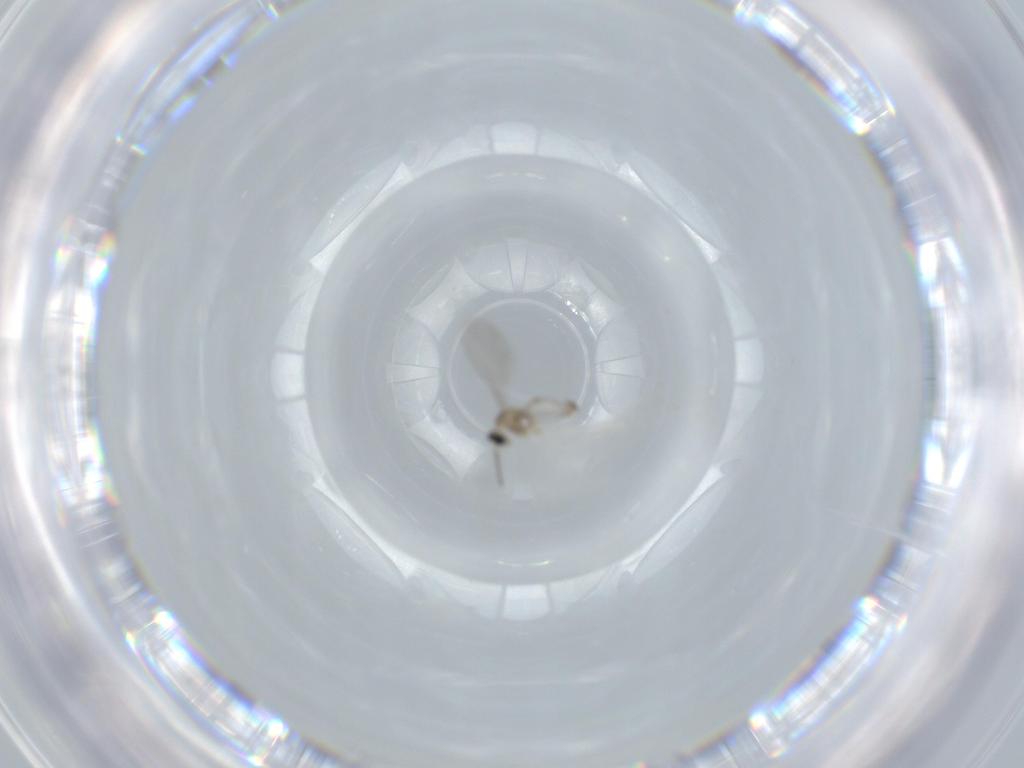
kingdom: Animalia
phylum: Arthropoda
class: Insecta
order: Diptera
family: Cecidomyiidae
